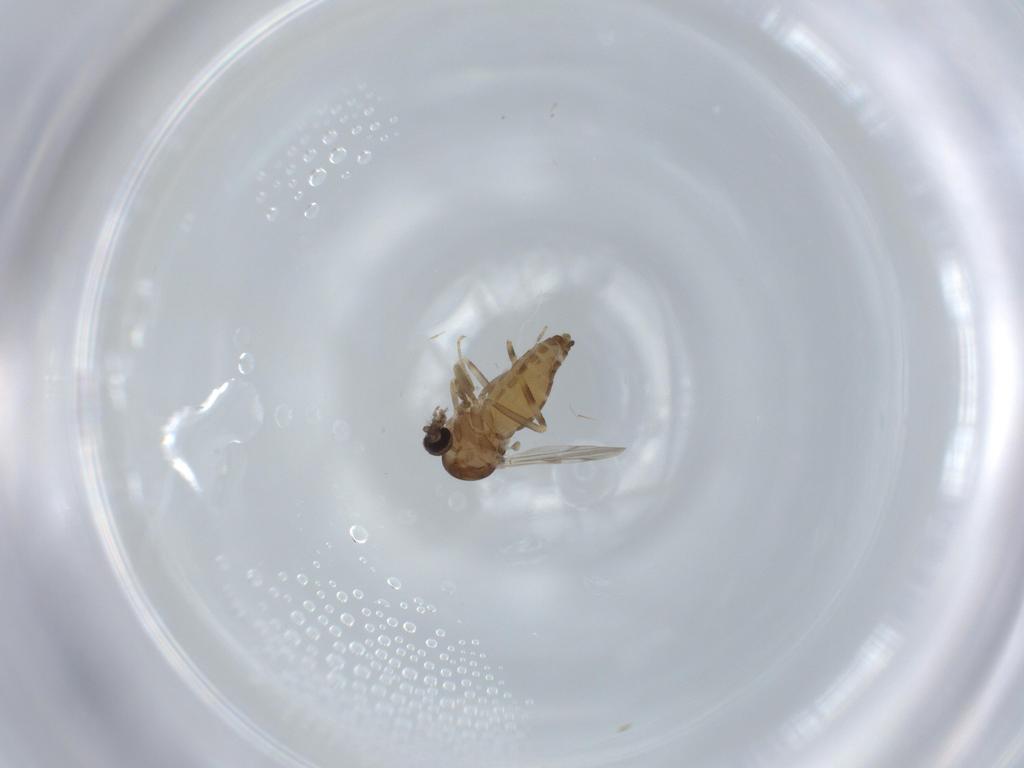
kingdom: Animalia
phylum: Arthropoda
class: Insecta
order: Diptera
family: Ceratopogonidae
